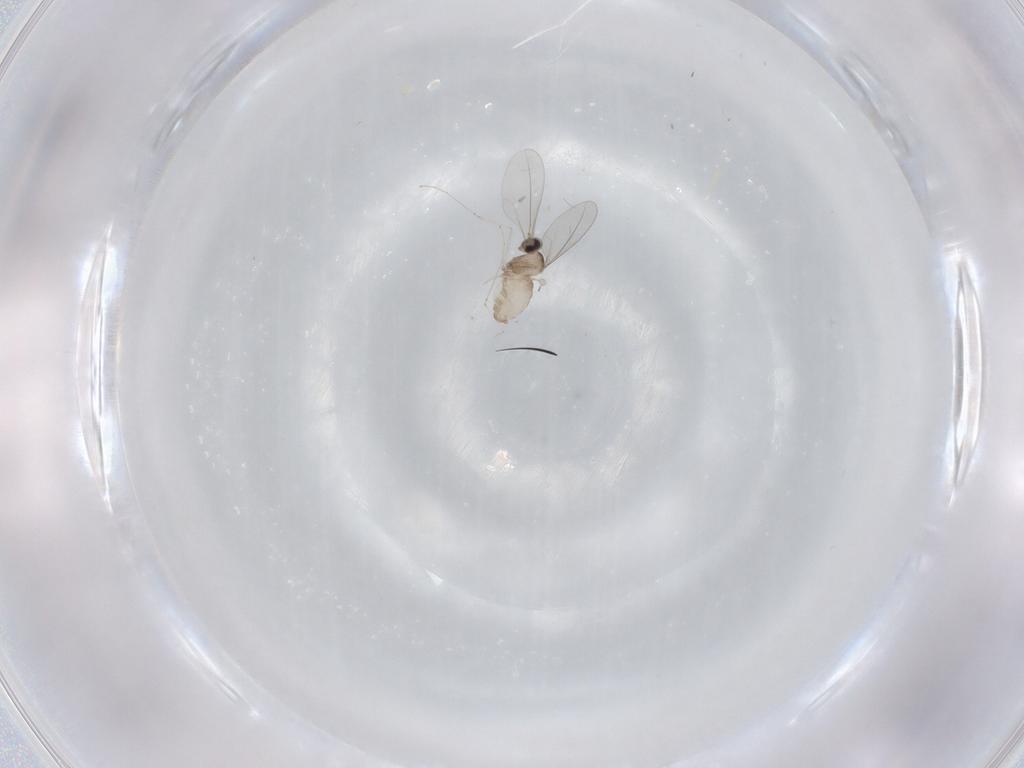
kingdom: Animalia
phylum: Arthropoda
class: Insecta
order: Diptera
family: Cecidomyiidae
